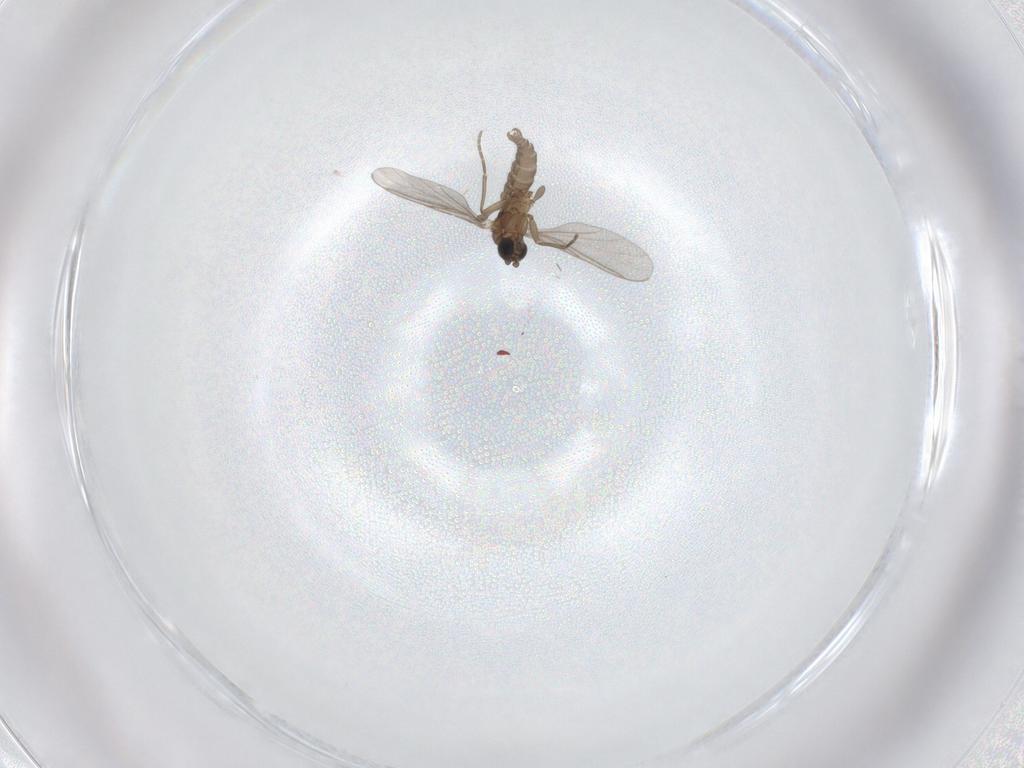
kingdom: Animalia
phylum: Arthropoda
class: Insecta
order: Diptera
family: Sciaridae
